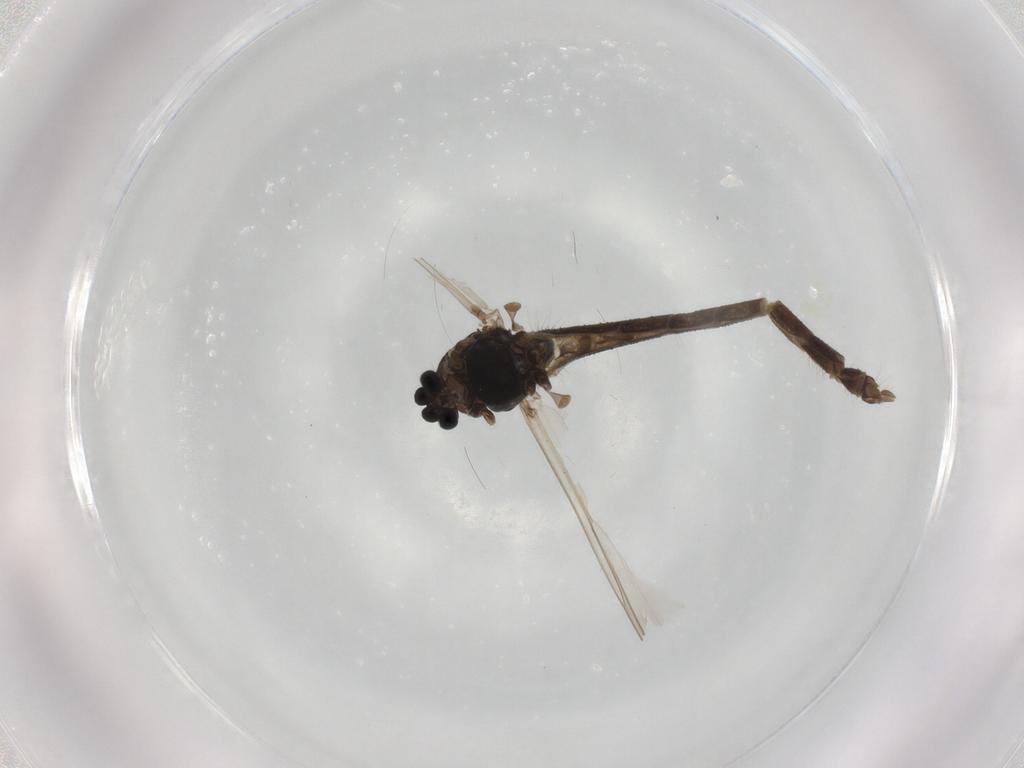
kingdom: Animalia
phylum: Arthropoda
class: Insecta
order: Diptera
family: Chironomidae
